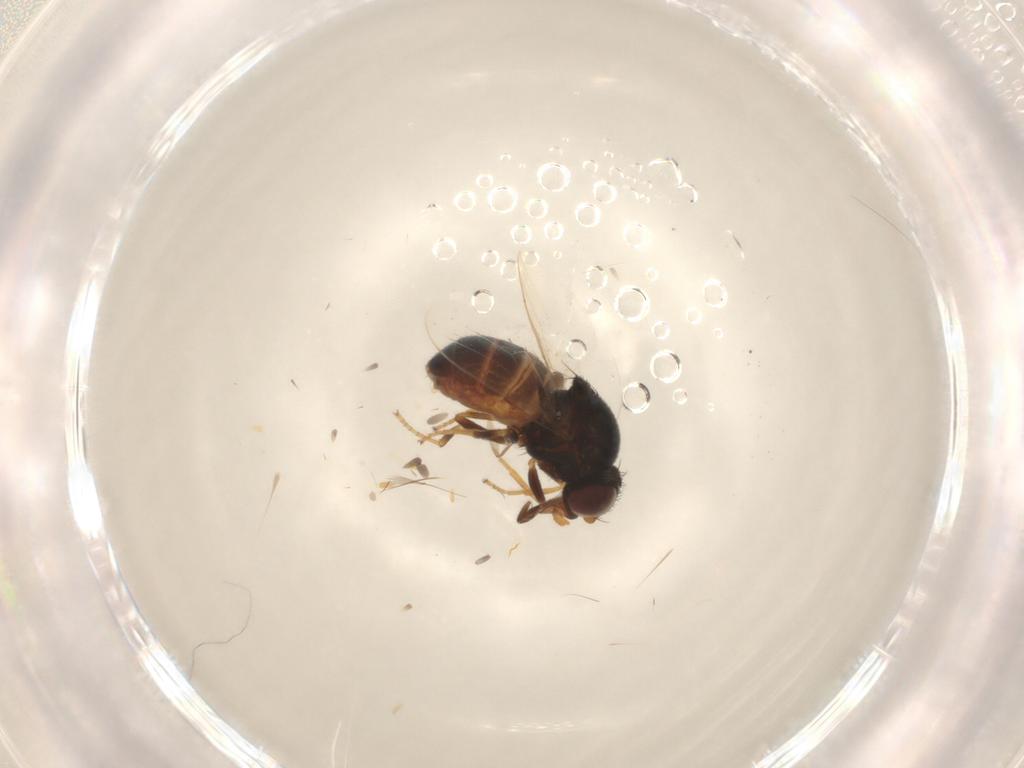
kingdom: Animalia
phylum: Arthropoda
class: Insecta
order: Diptera
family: Chloropidae
